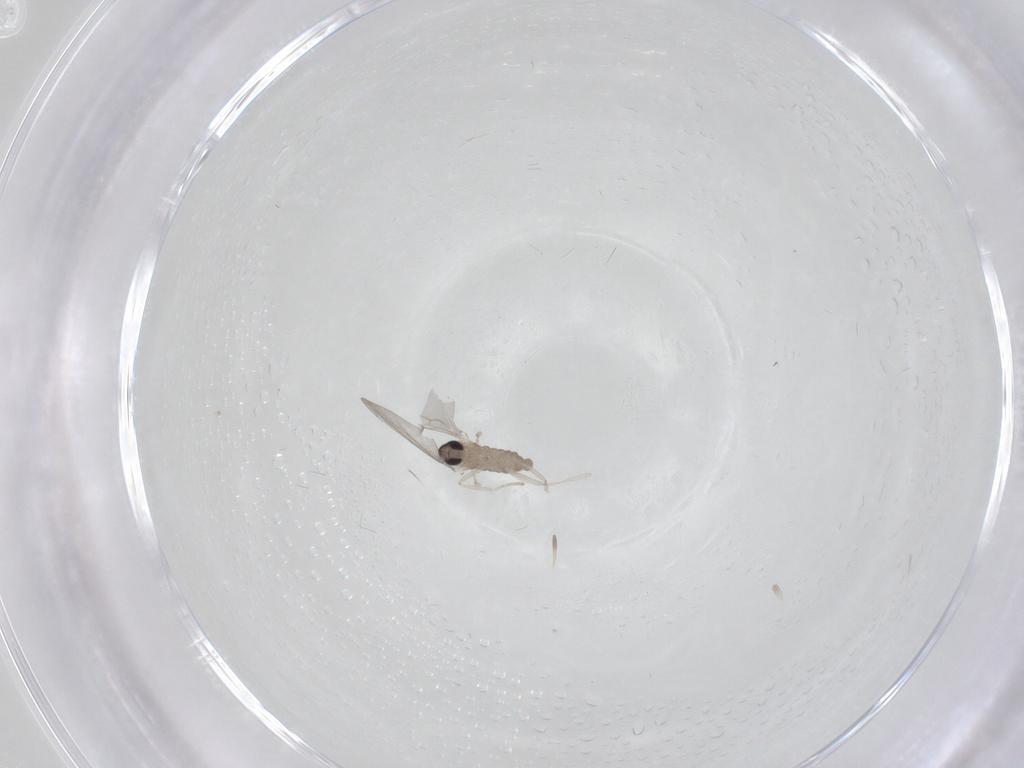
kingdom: Animalia
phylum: Arthropoda
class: Insecta
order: Diptera
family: Cecidomyiidae
